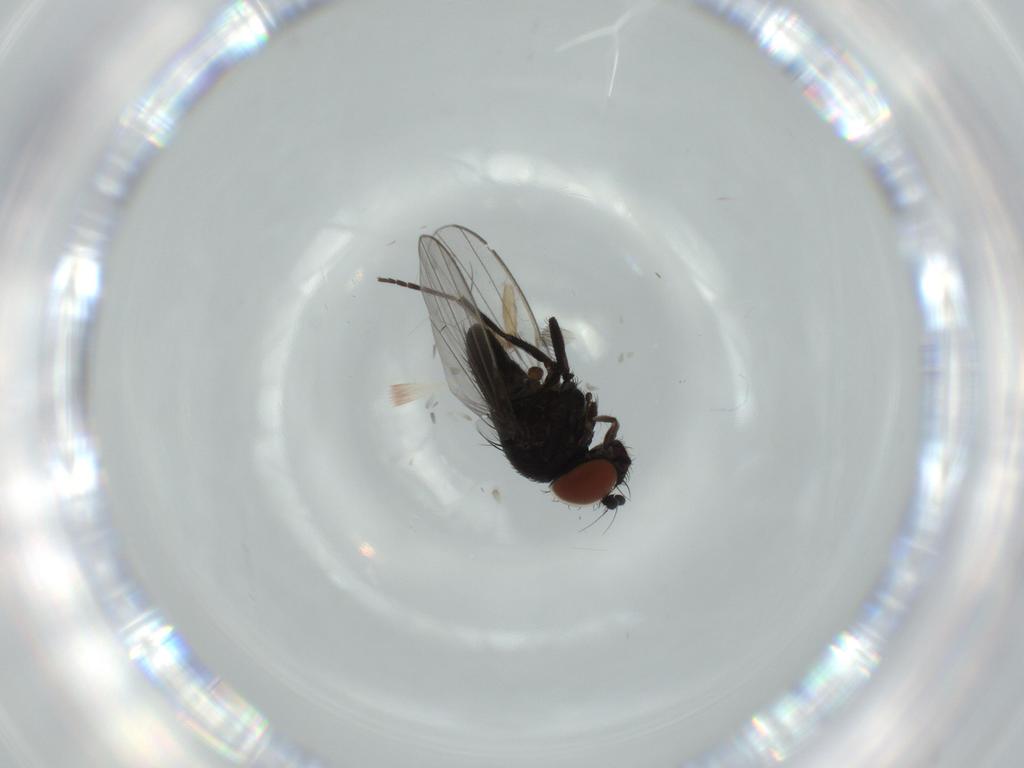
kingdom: Animalia
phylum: Arthropoda
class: Insecta
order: Diptera
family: Sciaridae
